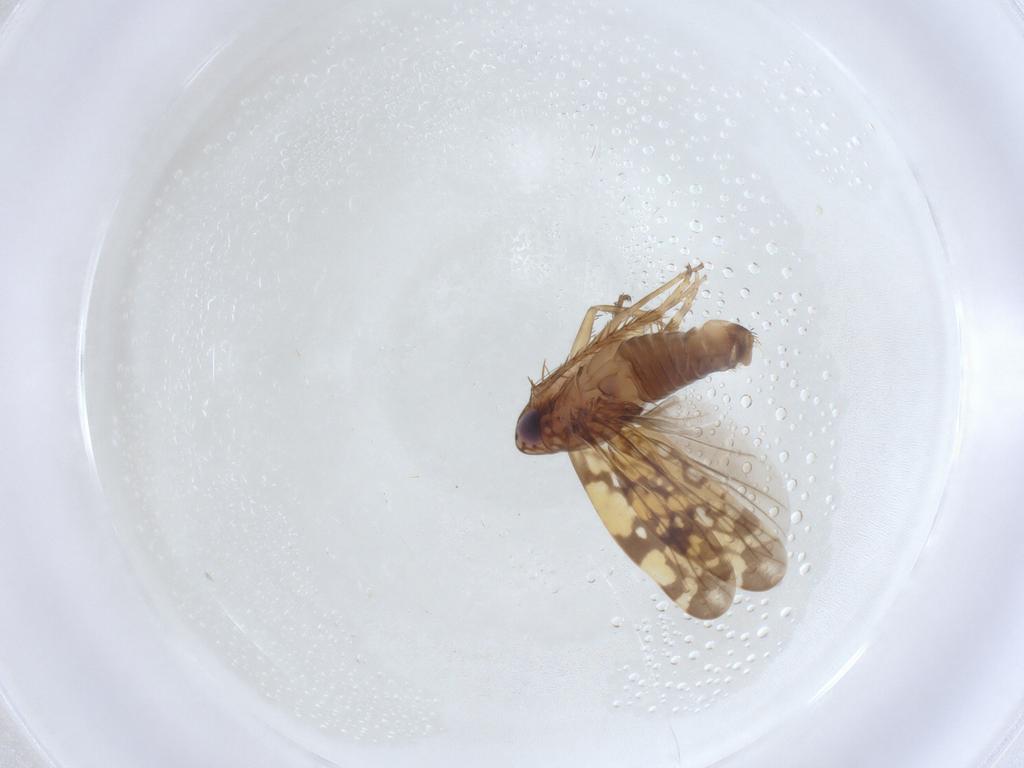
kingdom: Animalia
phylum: Arthropoda
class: Insecta
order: Hemiptera
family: Cicadellidae
